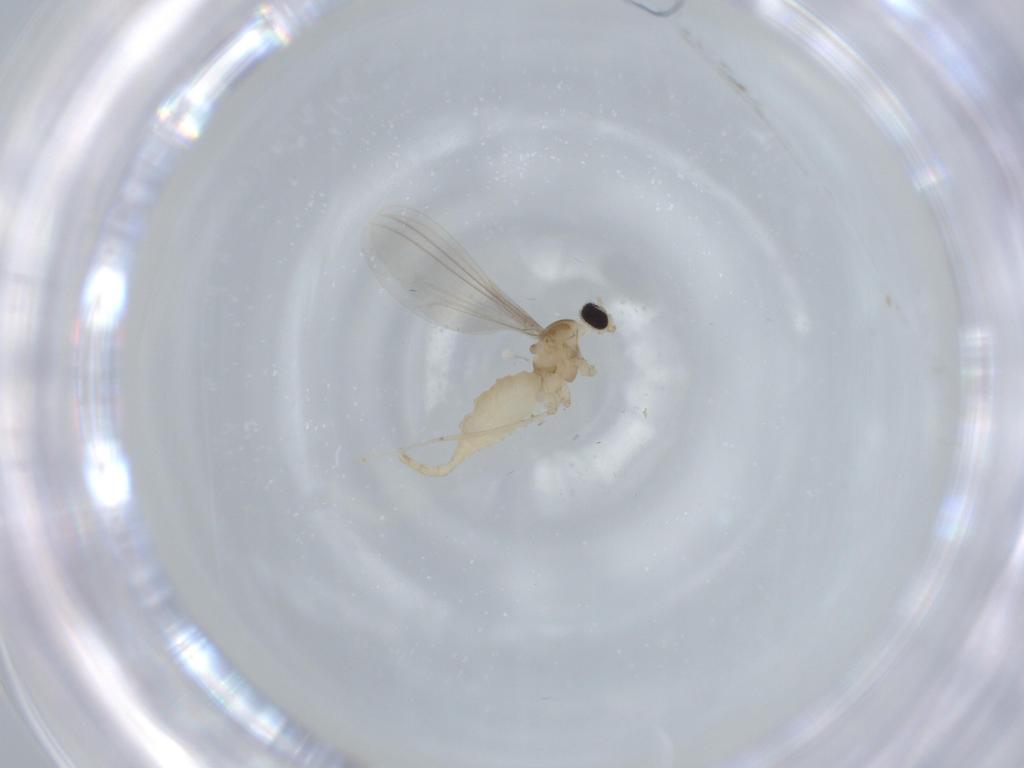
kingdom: Animalia
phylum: Arthropoda
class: Insecta
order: Diptera
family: Cecidomyiidae
